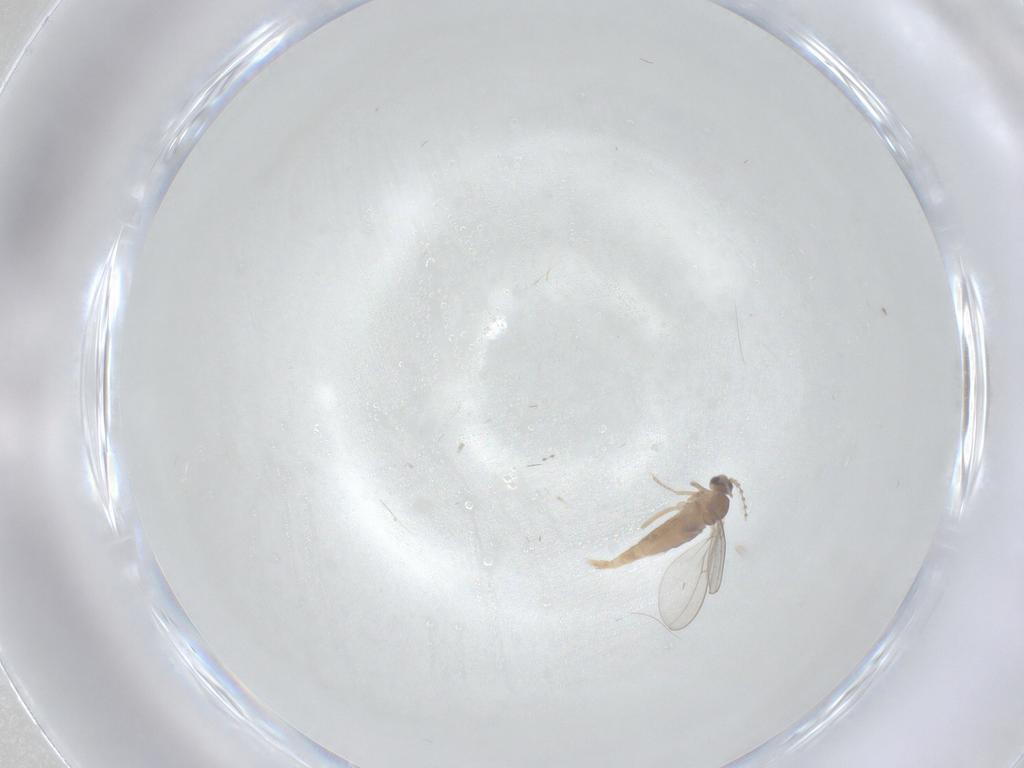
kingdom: Animalia
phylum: Arthropoda
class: Insecta
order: Diptera
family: Cecidomyiidae
